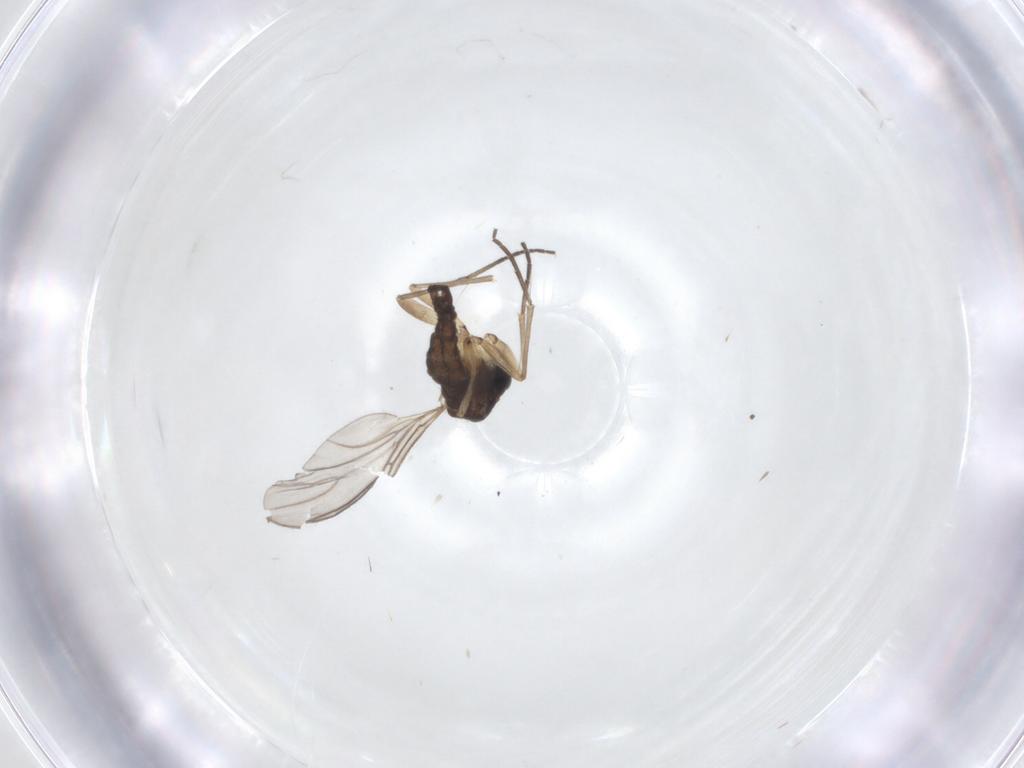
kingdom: Animalia
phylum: Arthropoda
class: Insecta
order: Diptera
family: Sciaridae
